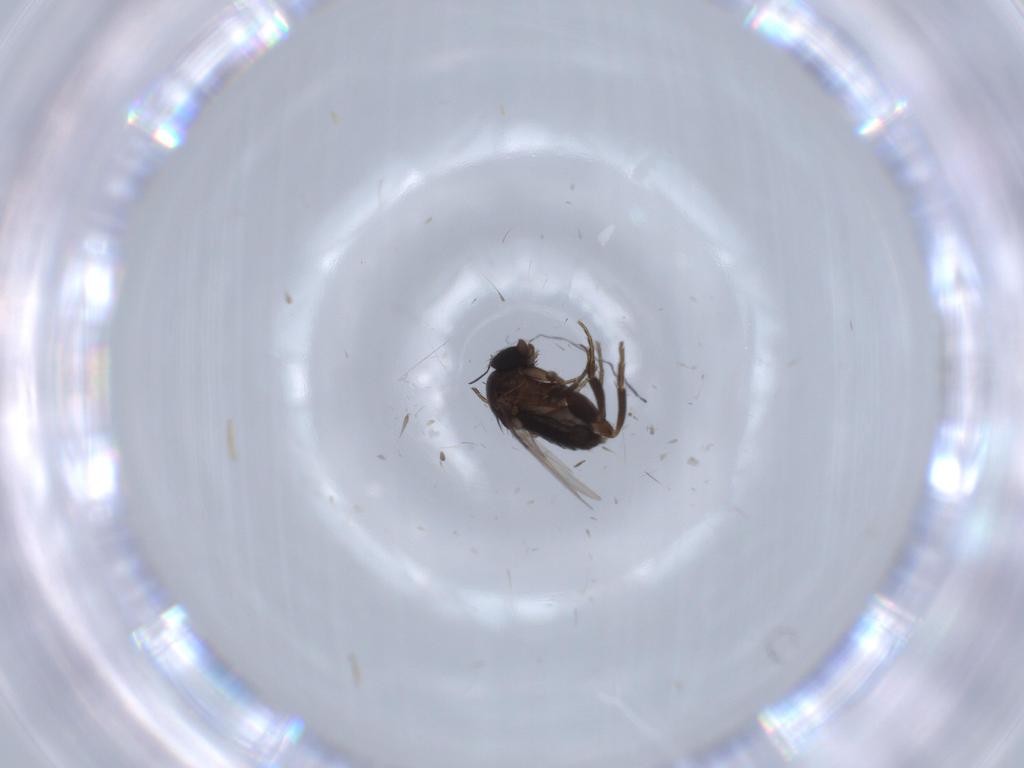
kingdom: Animalia
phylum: Arthropoda
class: Insecta
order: Diptera
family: Phoridae
